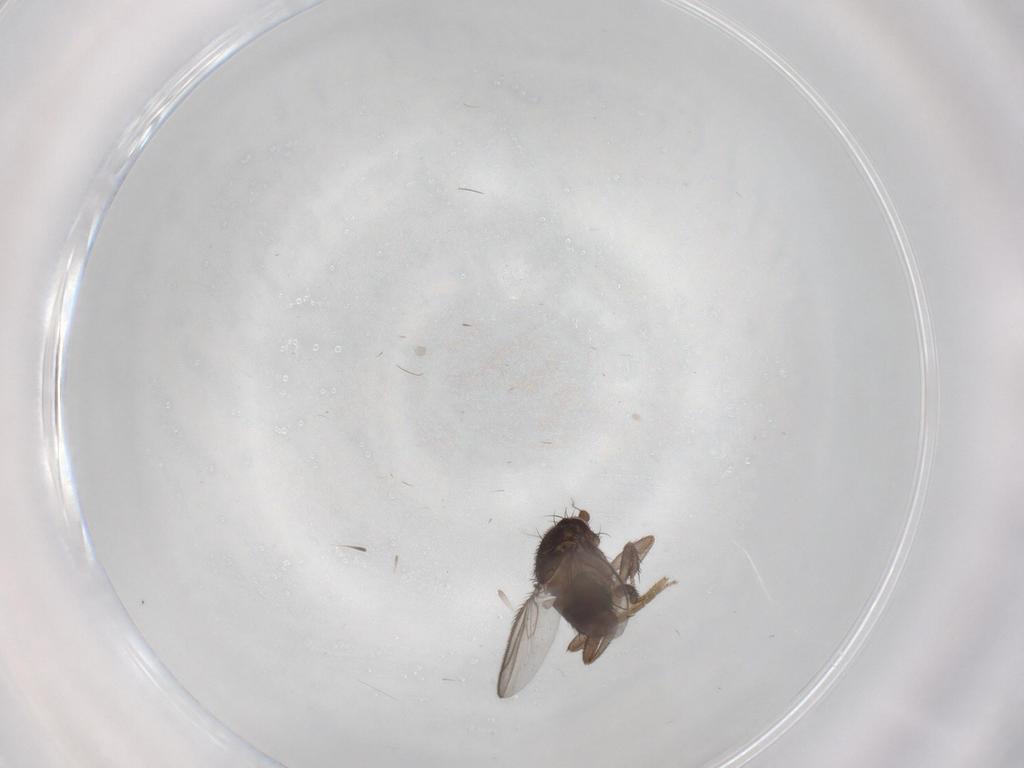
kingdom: Animalia
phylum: Arthropoda
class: Insecta
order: Diptera
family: Sphaeroceridae
